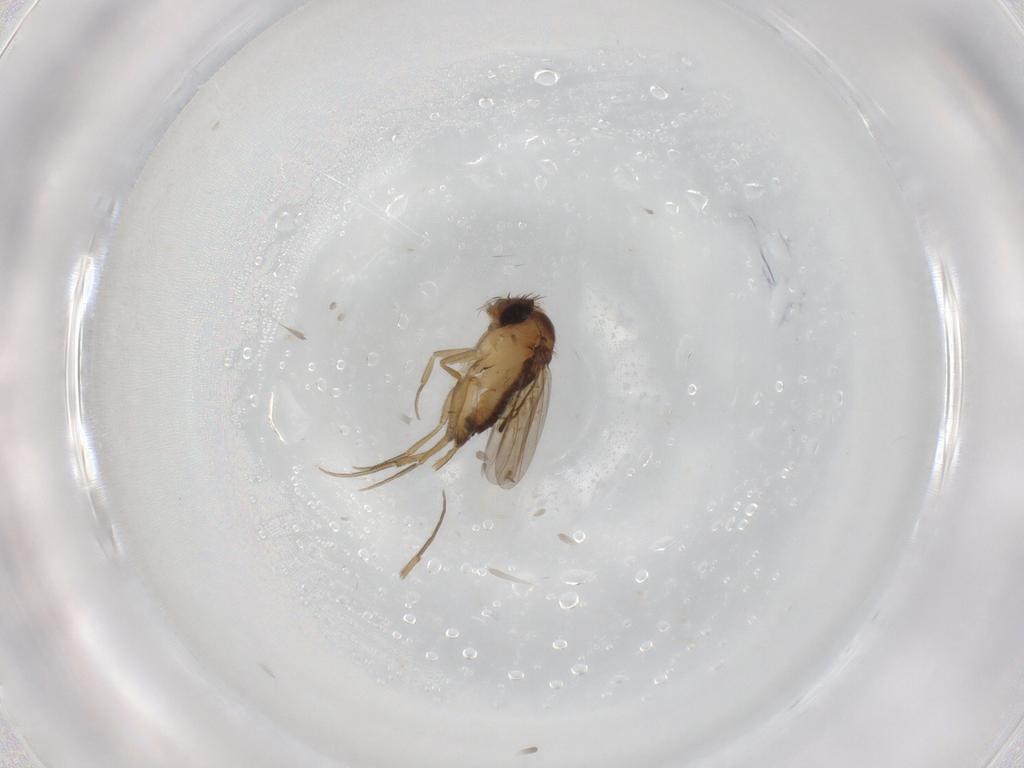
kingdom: Animalia
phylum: Arthropoda
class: Insecta
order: Diptera
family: Phoridae
